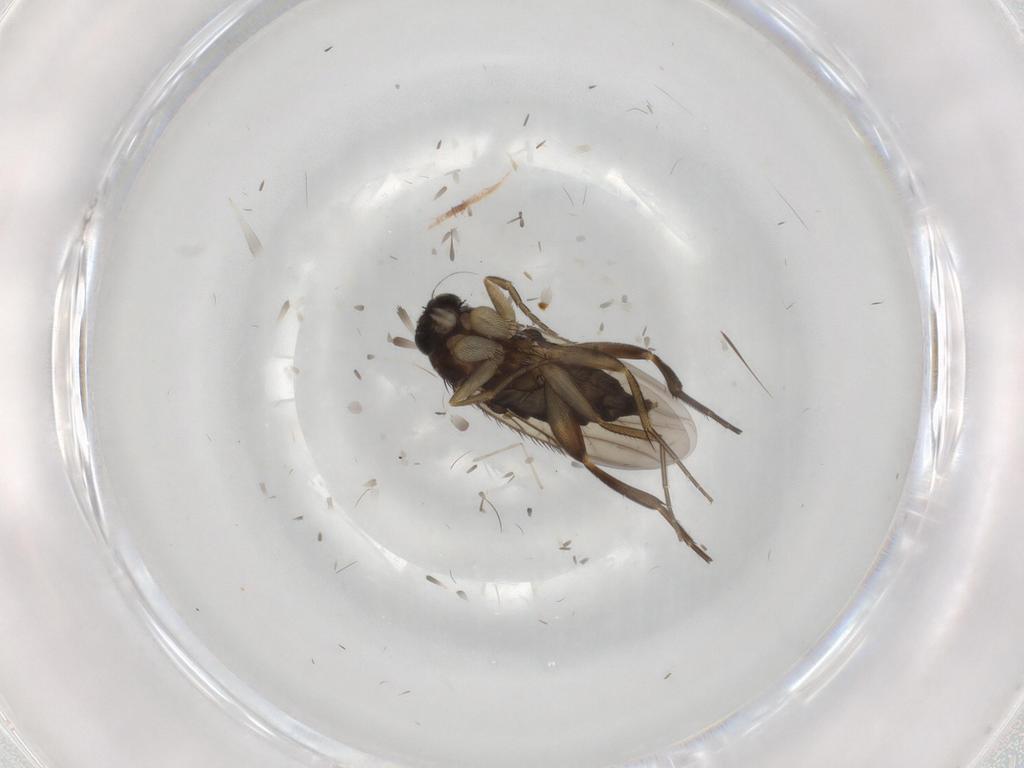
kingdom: Animalia
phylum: Arthropoda
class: Insecta
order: Diptera
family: Phoridae
